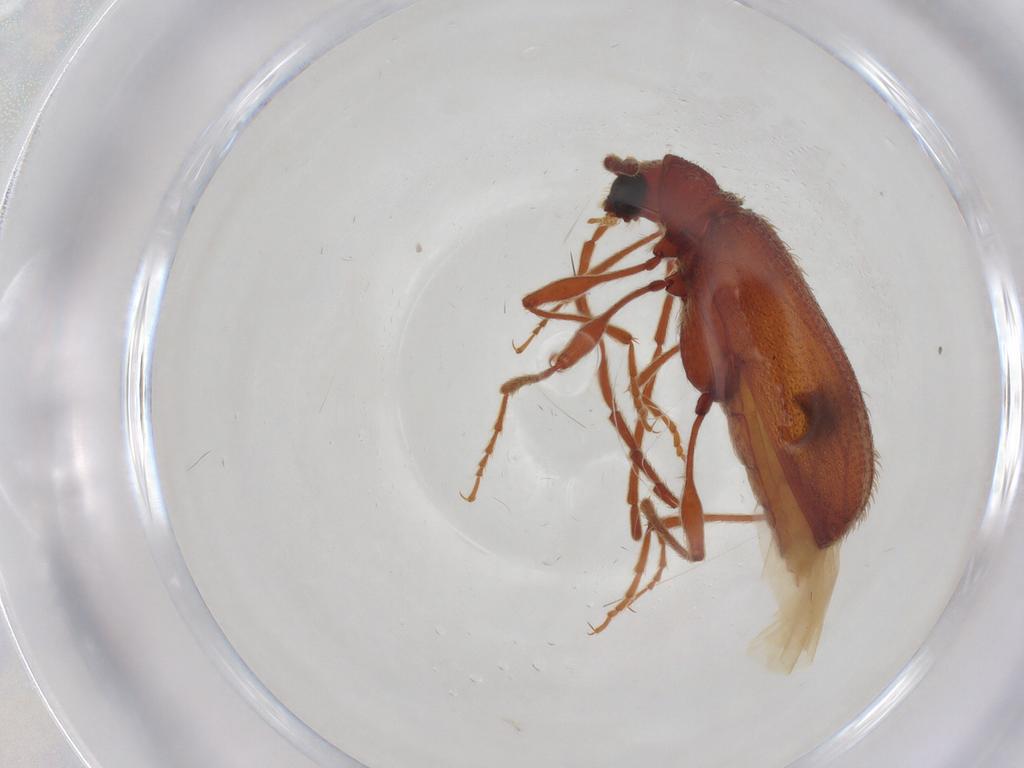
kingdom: Animalia
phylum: Arthropoda
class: Insecta
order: Coleoptera
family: Ptinidae
